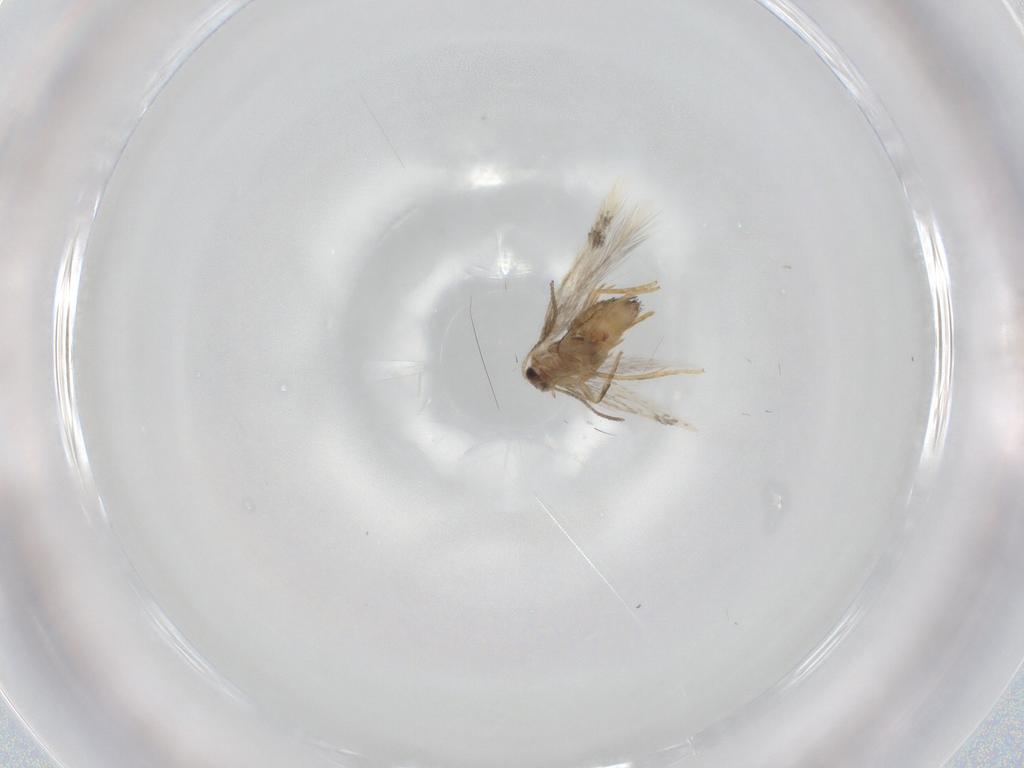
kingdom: Animalia
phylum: Arthropoda
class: Insecta
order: Lepidoptera
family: Nepticulidae
